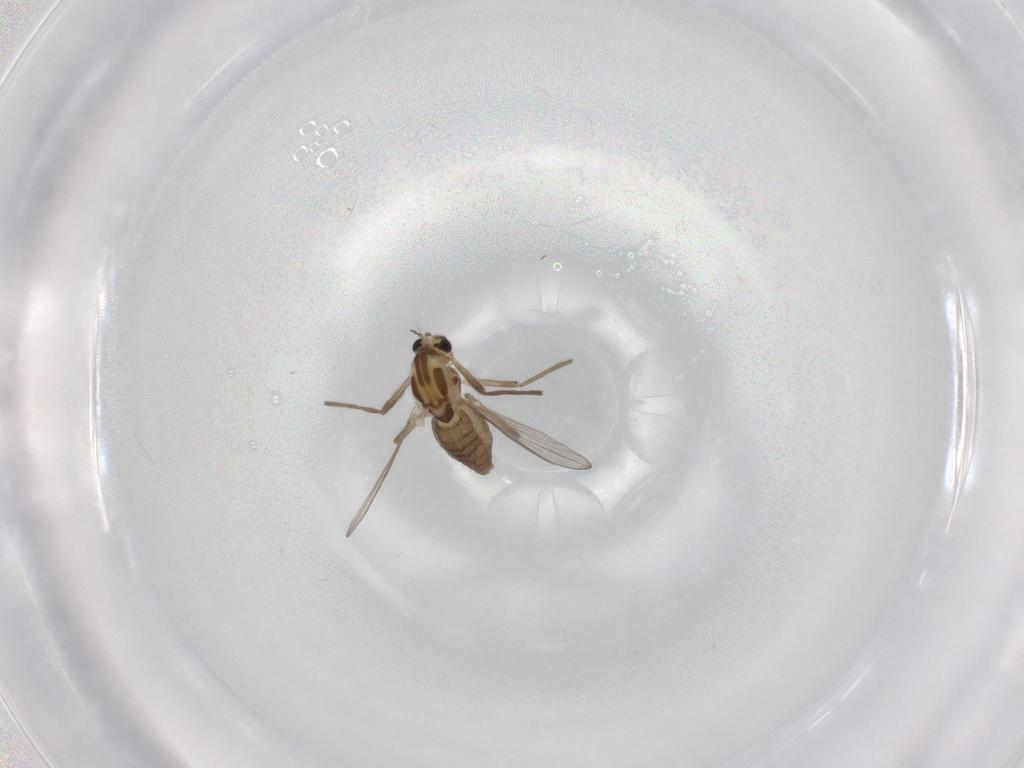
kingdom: Animalia
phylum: Arthropoda
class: Insecta
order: Diptera
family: Chironomidae
